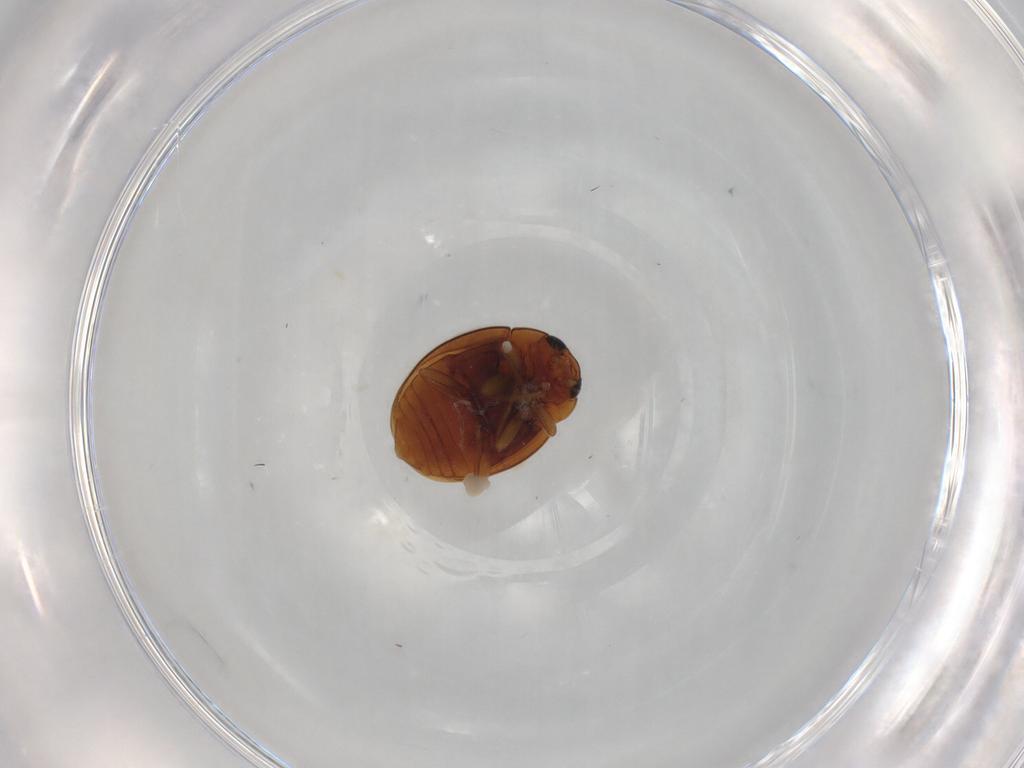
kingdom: Animalia
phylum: Arthropoda
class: Insecta
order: Coleoptera
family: Coccinellidae
